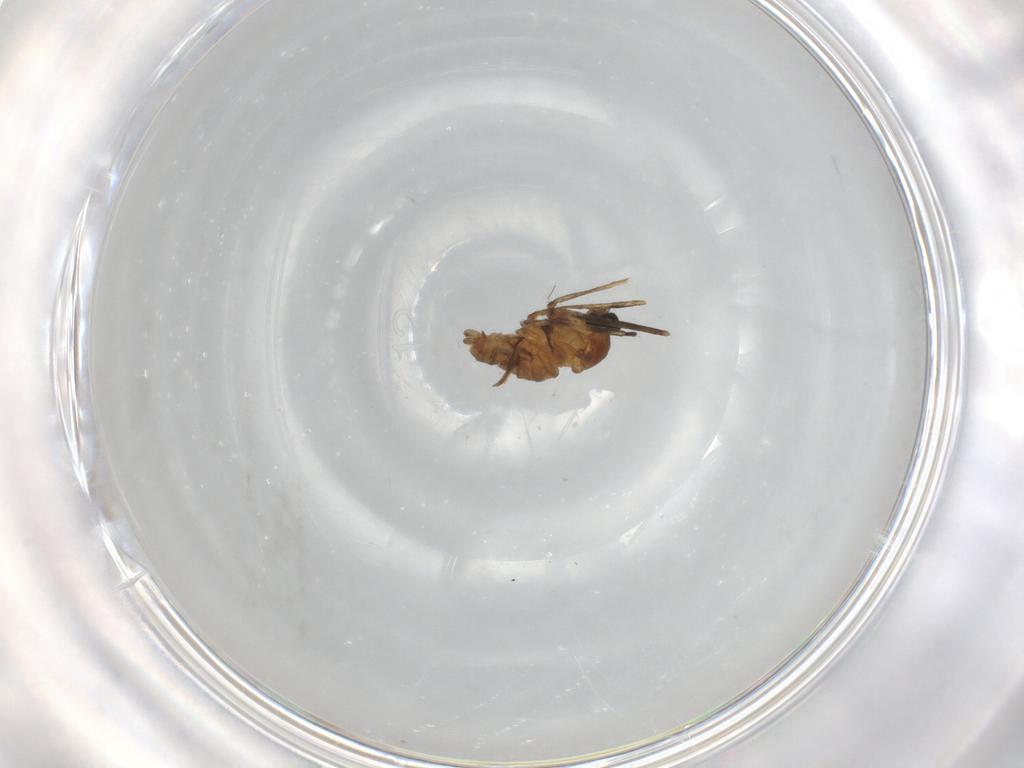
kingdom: Animalia
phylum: Arthropoda
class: Insecta
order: Diptera
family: Cecidomyiidae
